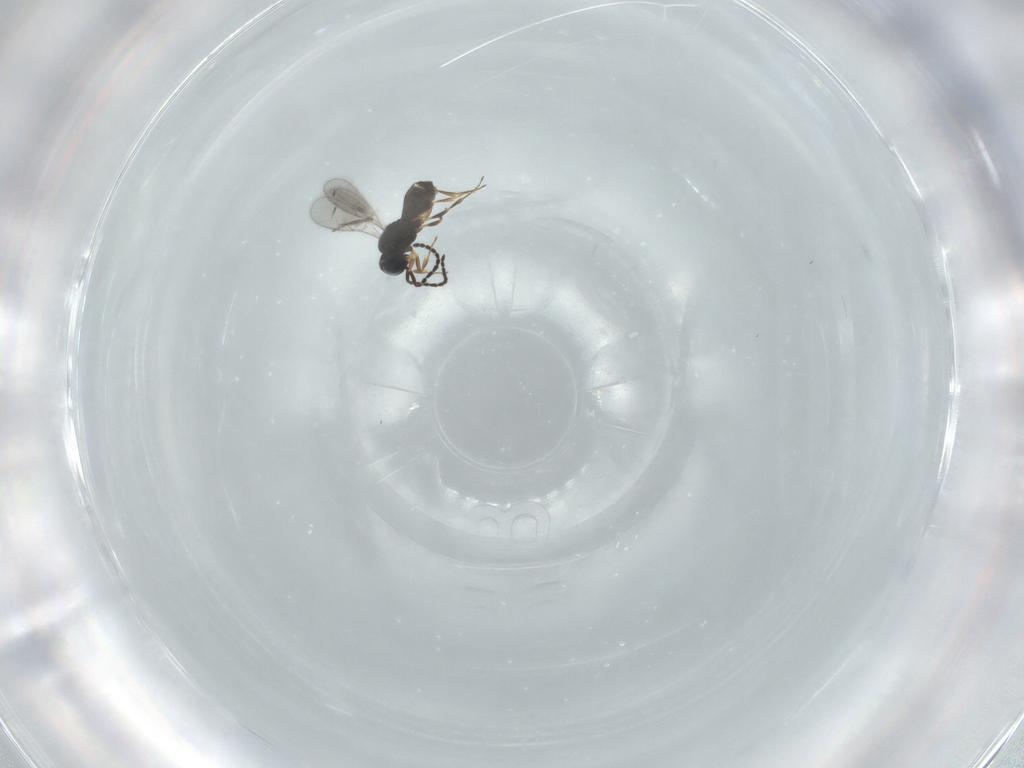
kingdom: Animalia
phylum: Arthropoda
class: Insecta
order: Hymenoptera
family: Scelionidae
